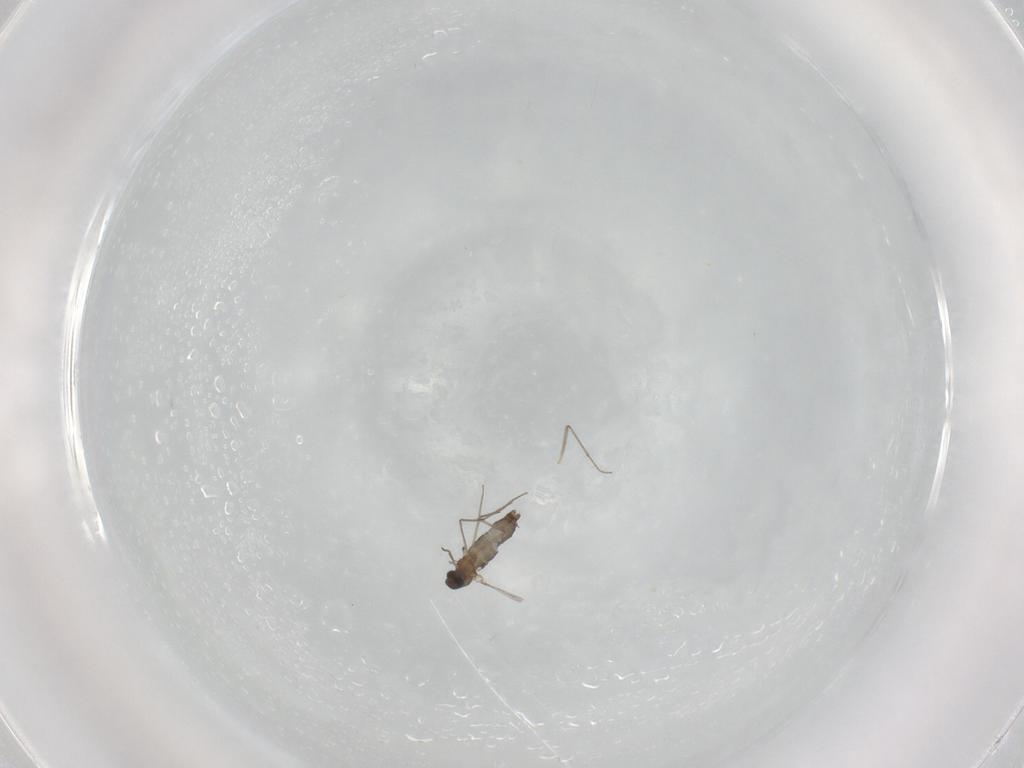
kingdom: Animalia
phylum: Arthropoda
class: Insecta
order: Diptera
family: Chironomidae
